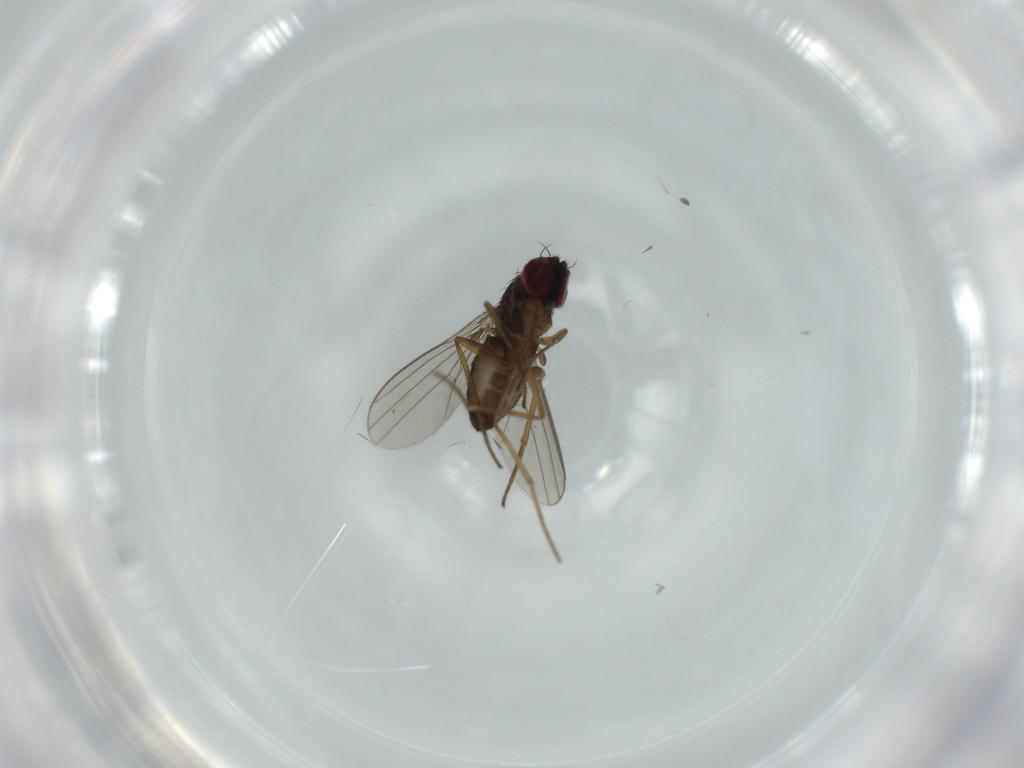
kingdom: Animalia
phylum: Arthropoda
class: Insecta
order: Diptera
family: Dolichopodidae
